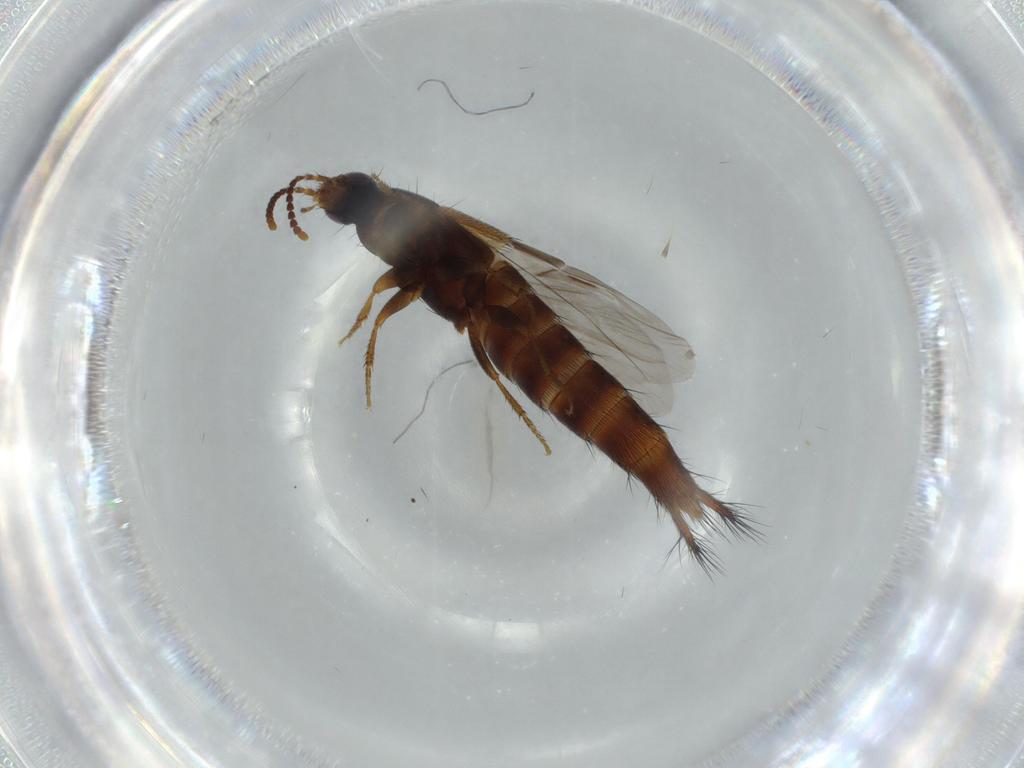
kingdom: Animalia
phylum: Arthropoda
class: Insecta
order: Coleoptera
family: Staphylinidae
